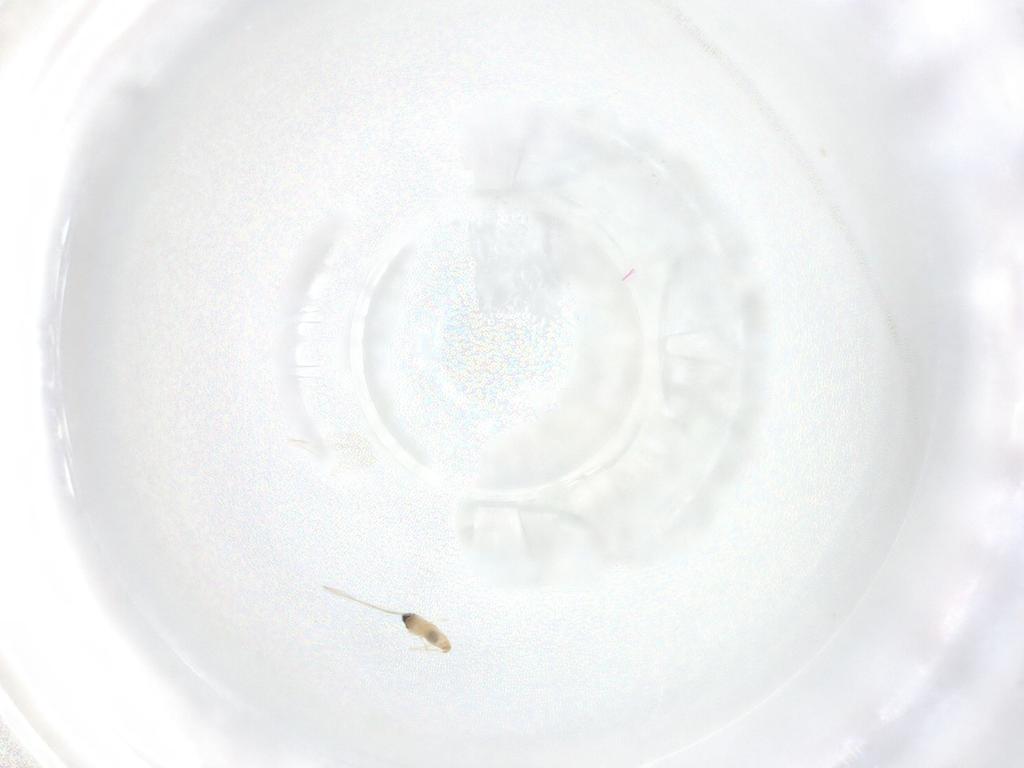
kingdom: Animalia
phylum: Arthropoda
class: Insecta
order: Diptera
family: Cecidomyiidae
